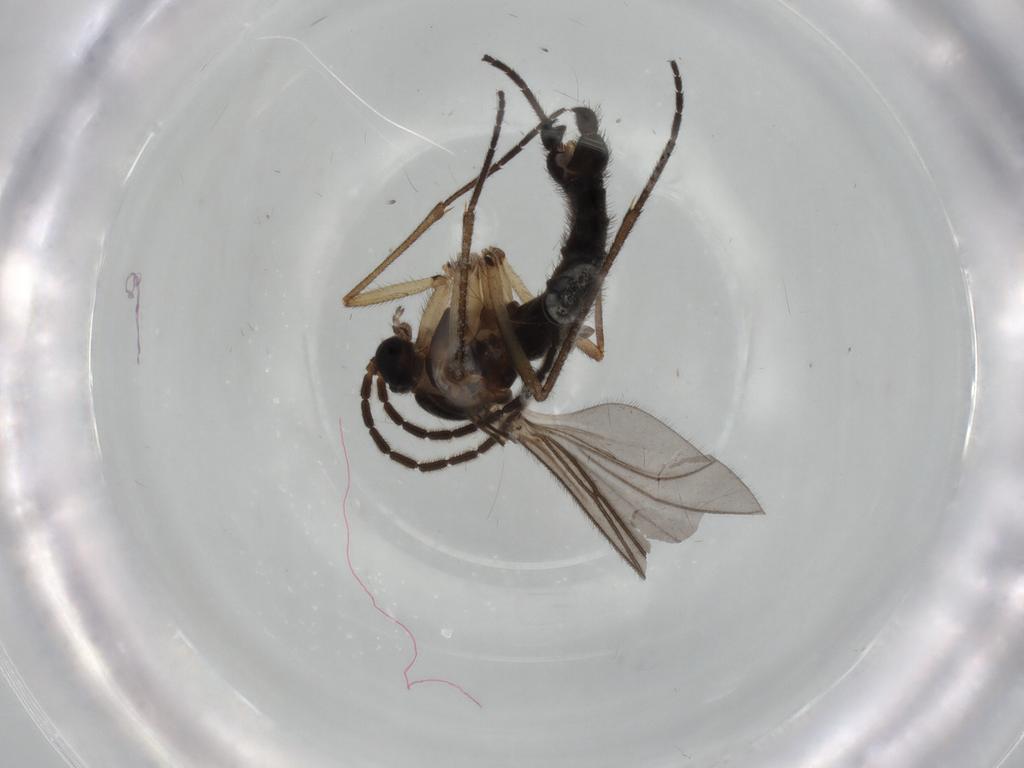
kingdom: Animalia
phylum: Arthropoda
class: Insecta
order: Diptera
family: Sciaridae
